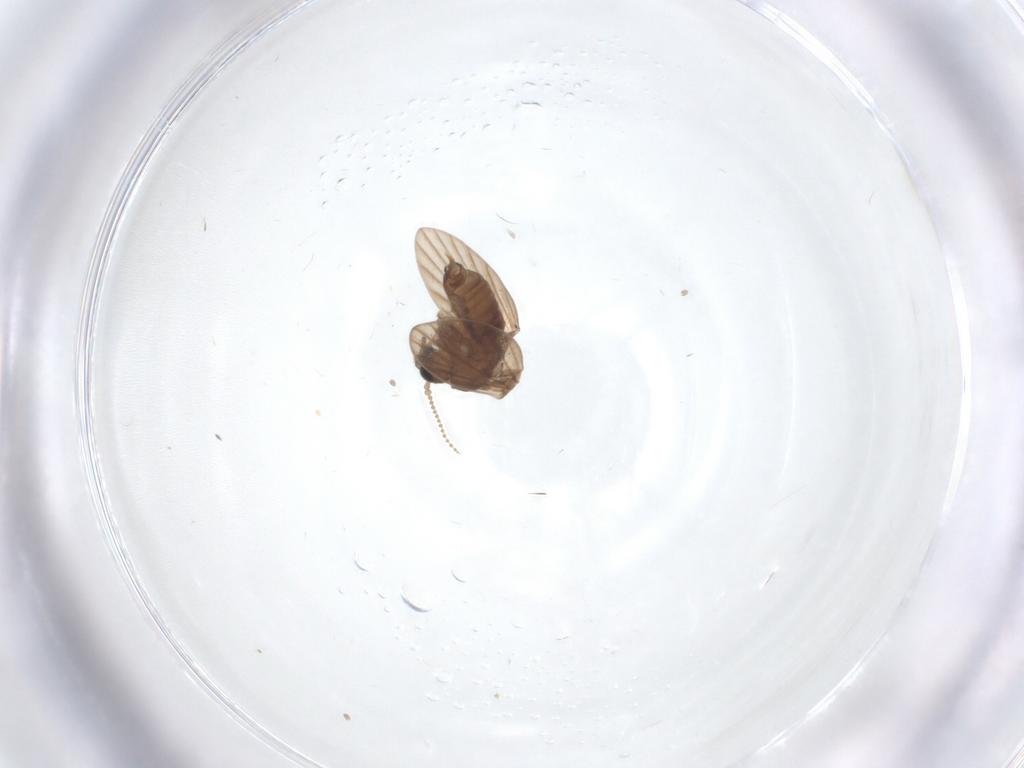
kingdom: Animalia
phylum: Arthropoda
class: Insecta
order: Diptera
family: Psychodidae
